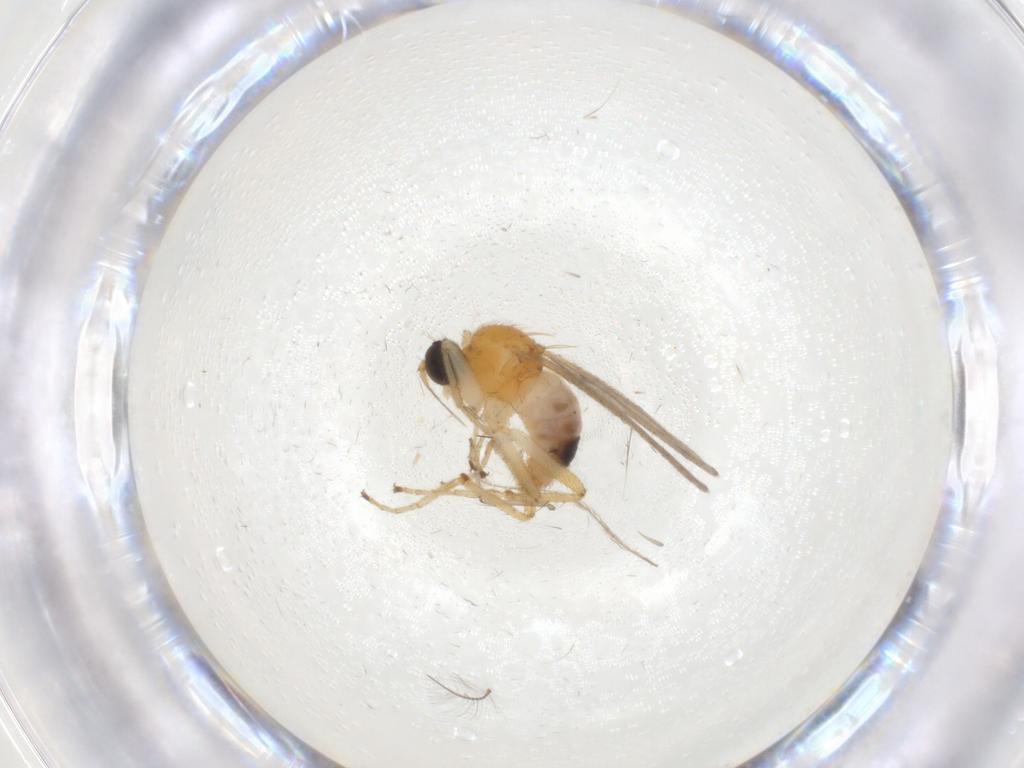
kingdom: Animalia
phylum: Arthropoda
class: Insecta
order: Diptera
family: Hybotidae
